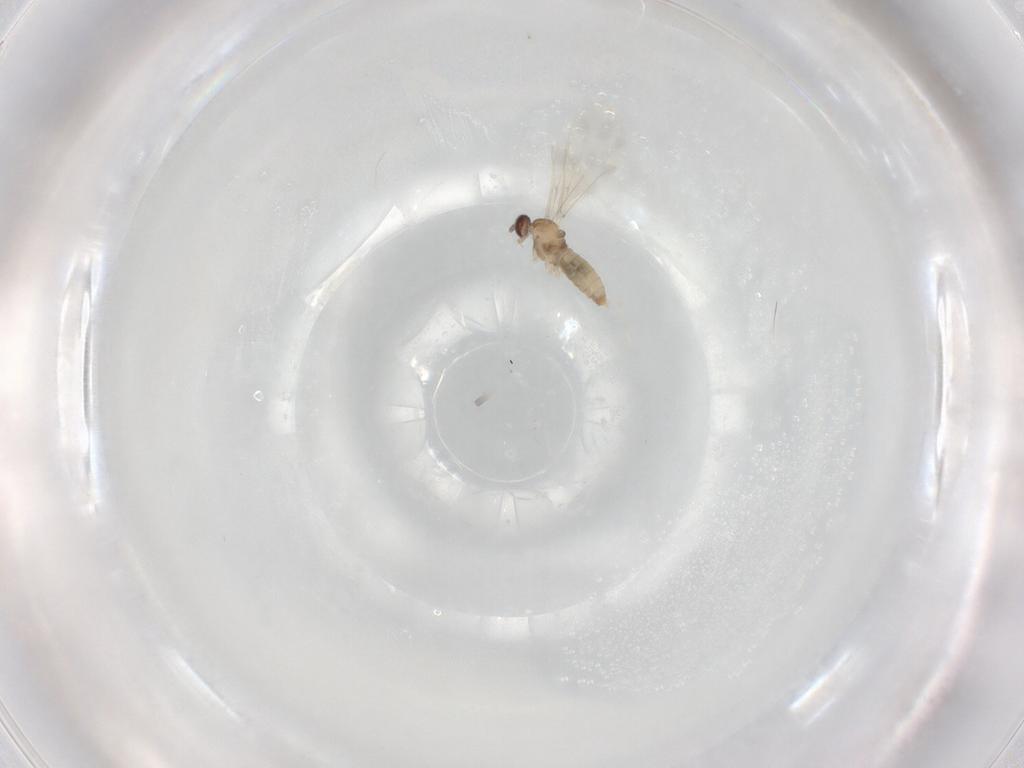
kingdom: Animalia
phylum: Arthropoda
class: Insecta
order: Diptera
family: Cecidomyiidae
